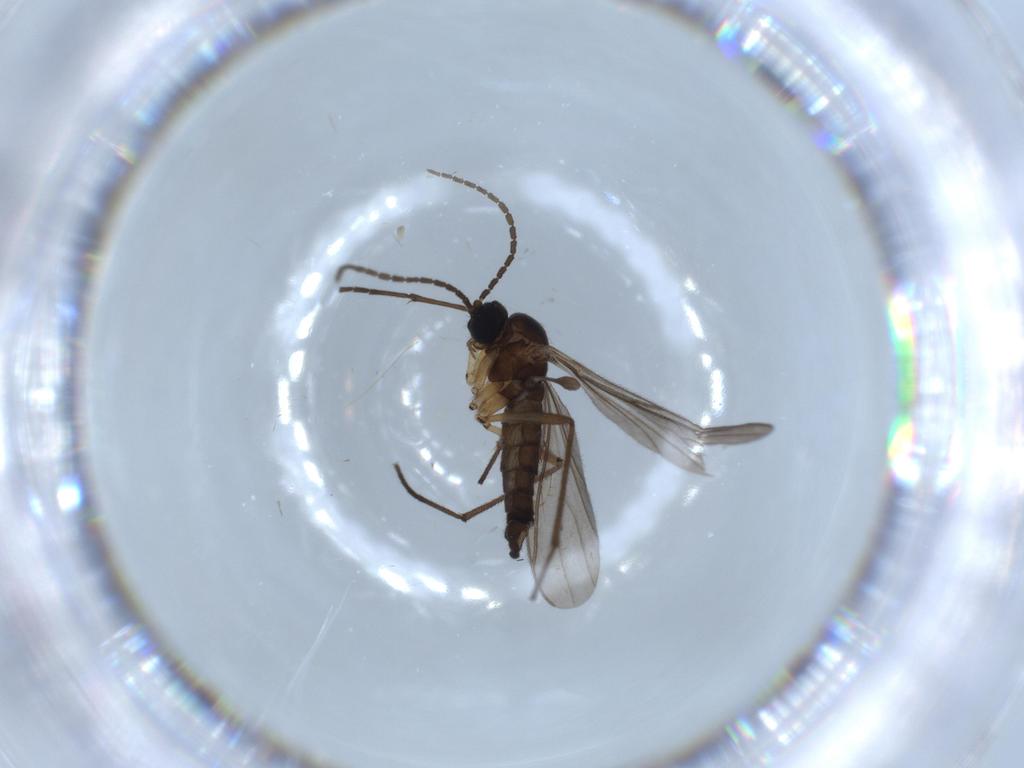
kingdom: Animalia
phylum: Arthropoda
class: Insecta
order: Diptera
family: Sciaridae
